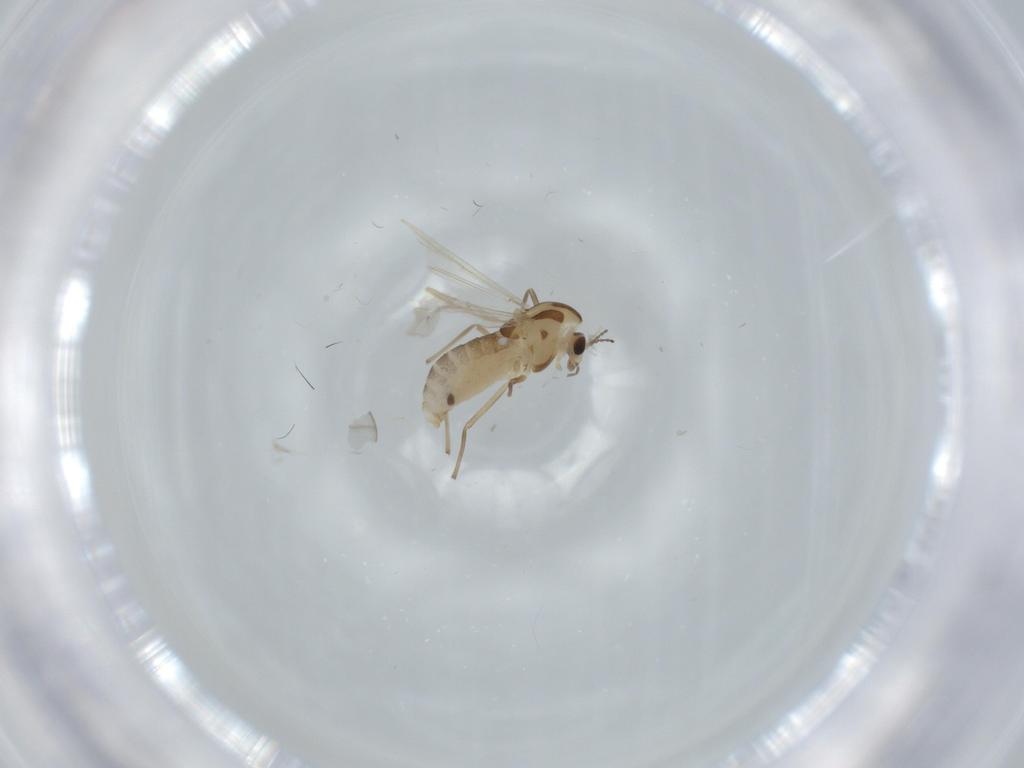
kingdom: Animalia
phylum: Arthropoda
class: Insecta
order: Diptera
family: Chironomidae
